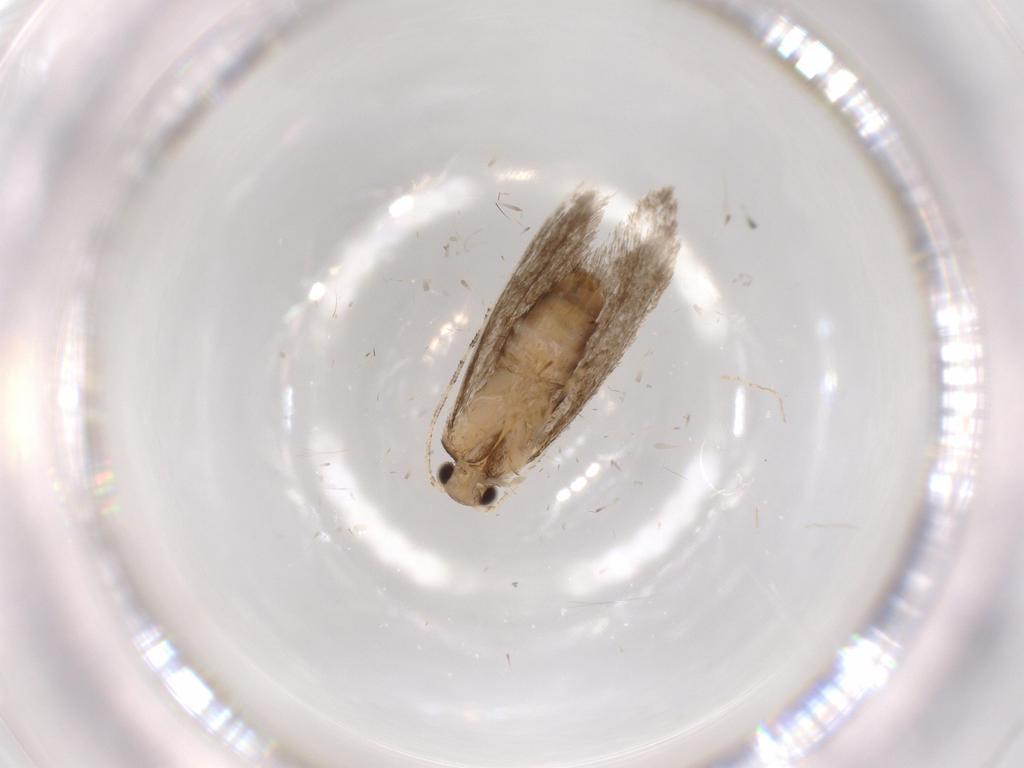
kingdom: Animalia
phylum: Arthropoda
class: Insecta
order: Lepidoptera
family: Tineidae
